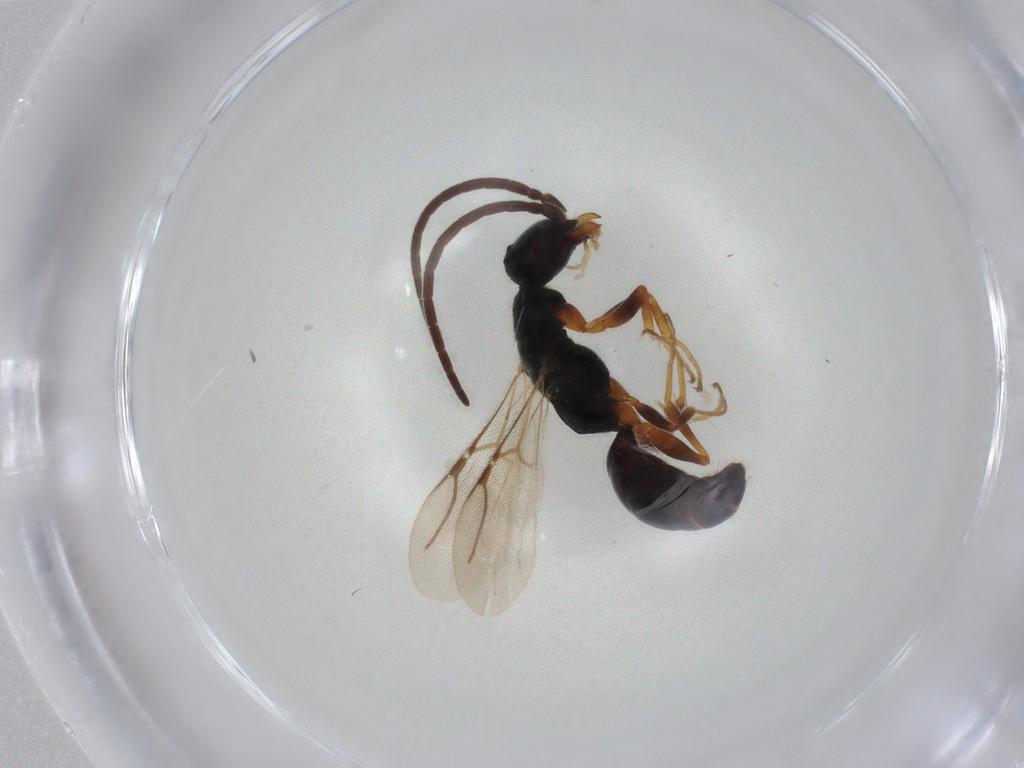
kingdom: Animalia
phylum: Arthropoda
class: Insecta
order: Hymenoptera
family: Bethylidae
